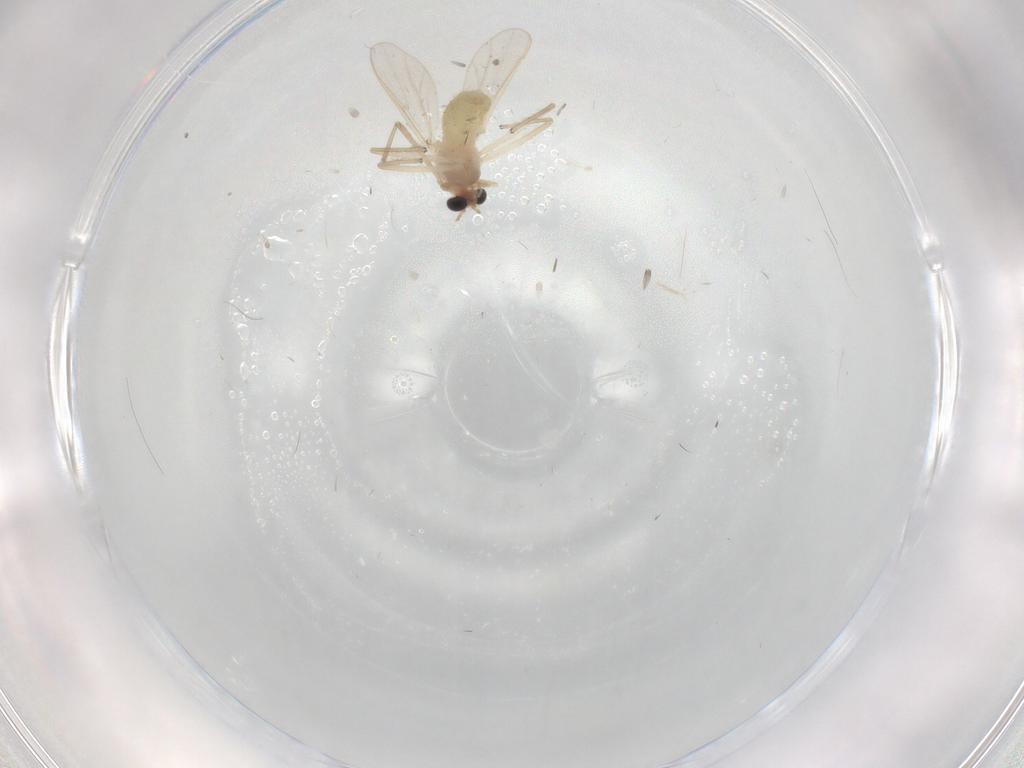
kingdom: Animalia
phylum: Arthropoda
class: Insecta
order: Diptera
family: Chironomidae
